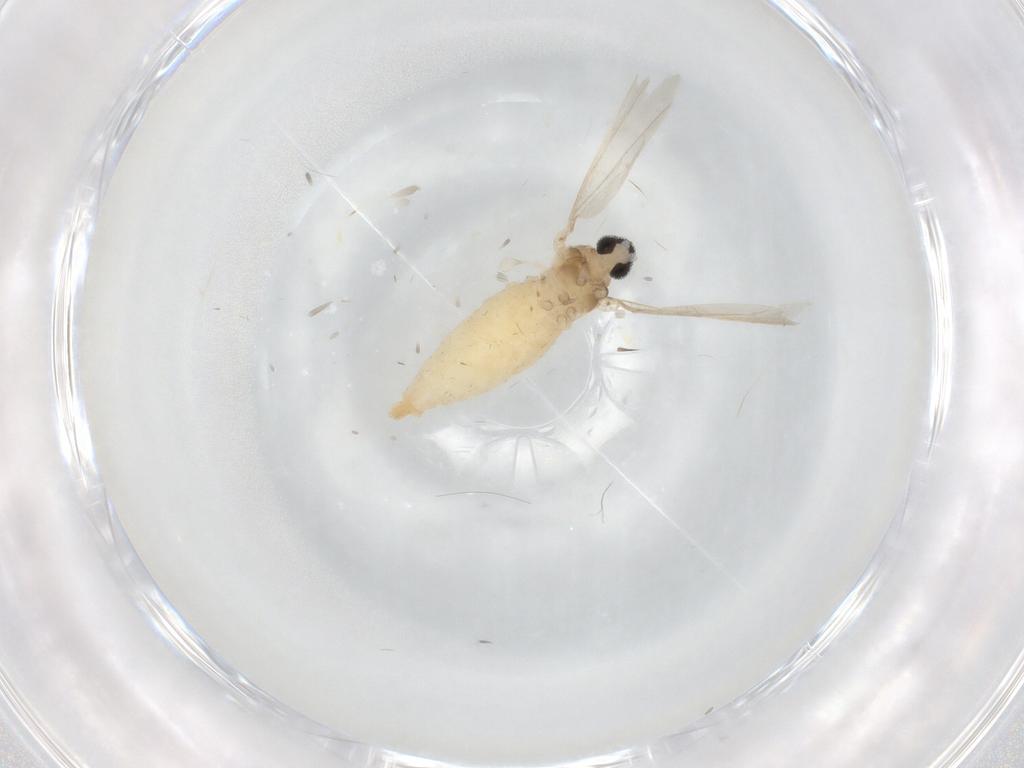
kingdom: Animalia
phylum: Arthropoda
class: Insecta
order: Diptera
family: Cecidomyiidae
